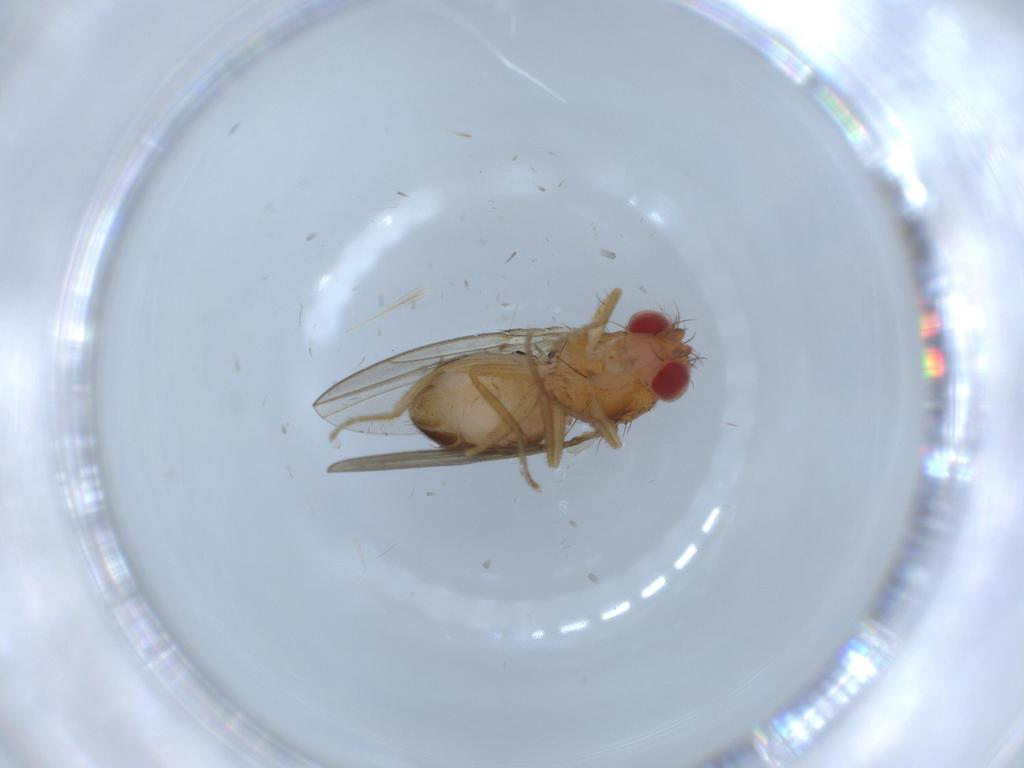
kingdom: Animalia
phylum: Arthropoda
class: Insecta
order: Diptera
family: Drosophilidae
